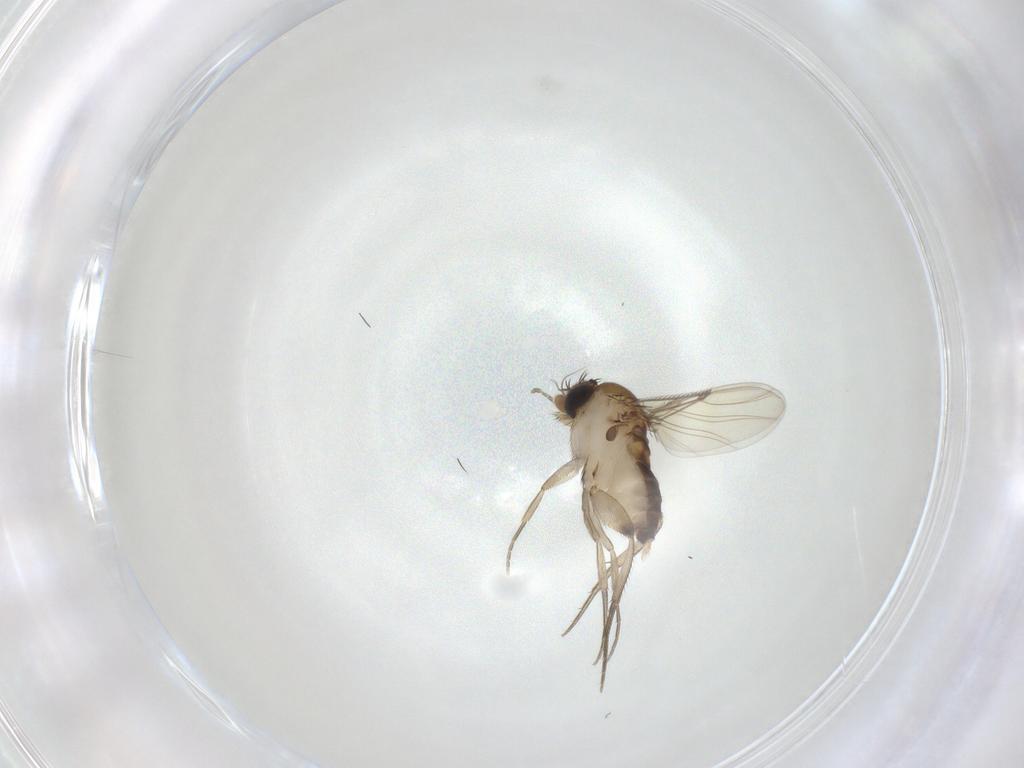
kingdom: Animalia
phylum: Arthropoda
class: Insecta
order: Diptera
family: Phoridae
